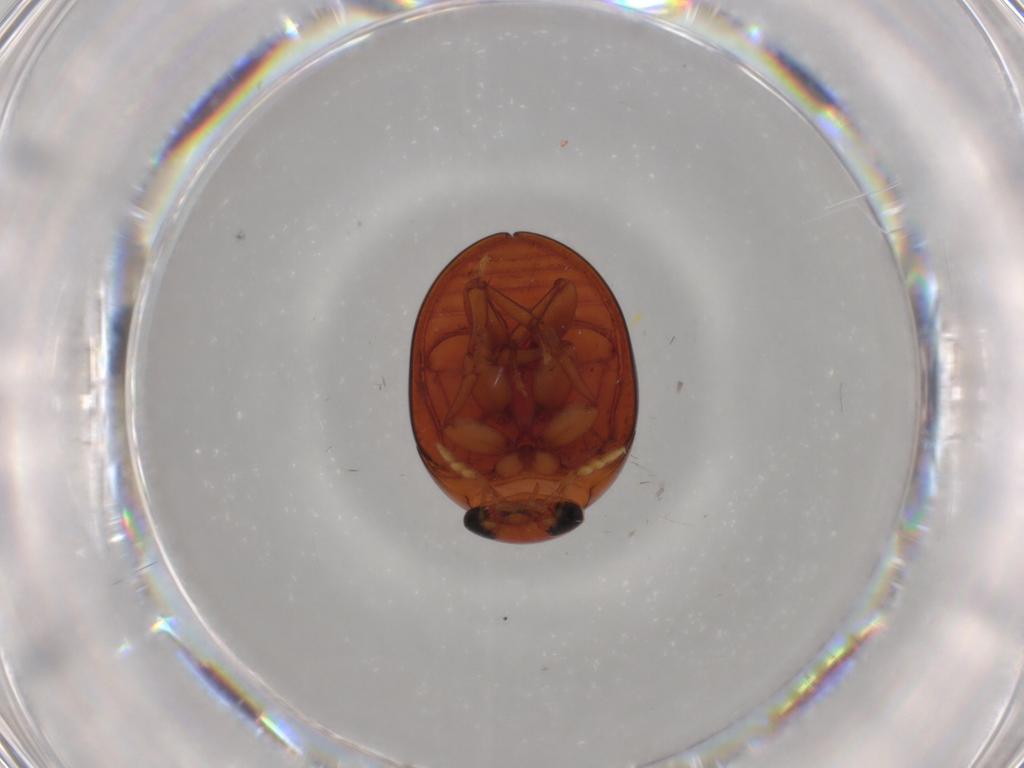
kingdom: Animalia
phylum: Arthropoda
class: Insecta
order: Coleoptera
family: Phalacridae
